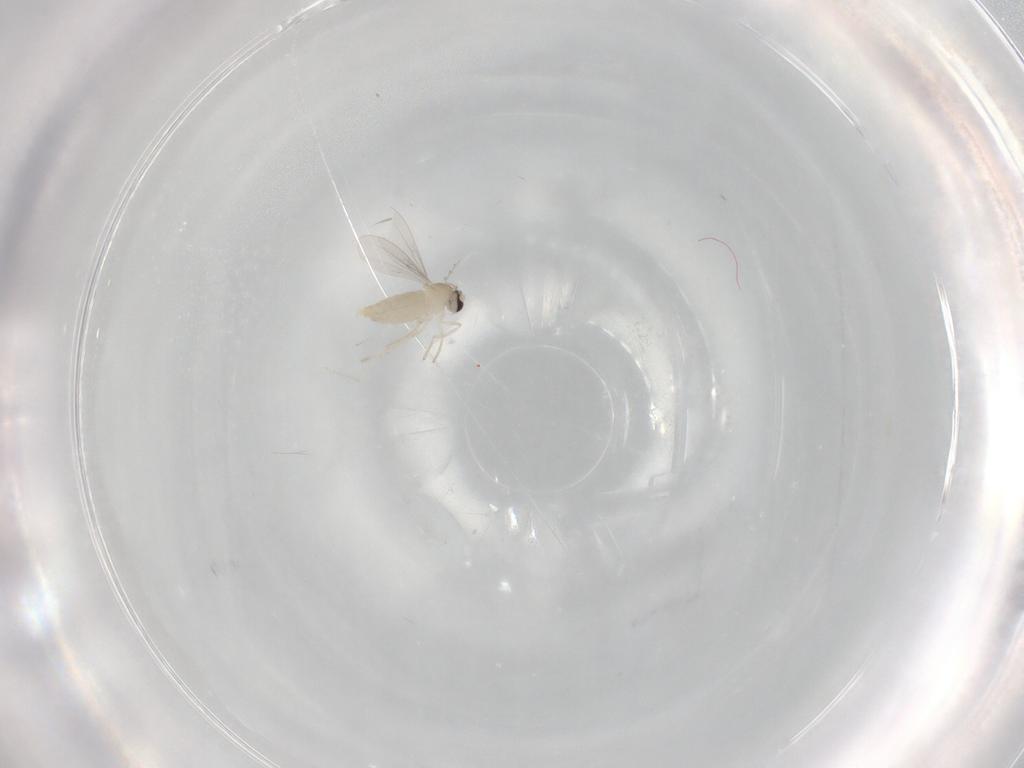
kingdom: Animalia
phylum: Arthropoda
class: Insecta
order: Diptera
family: Cecidomyiidae
